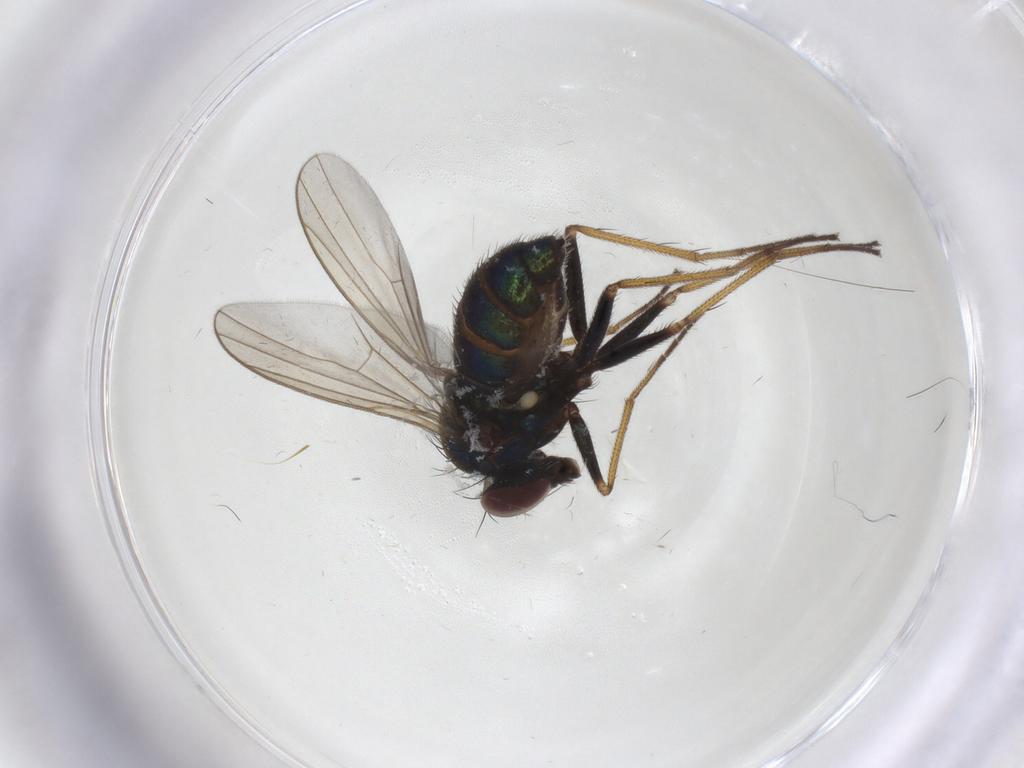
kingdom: Animalia
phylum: Arthropoda
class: Insecta
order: Diptera
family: Dolichopodidae
